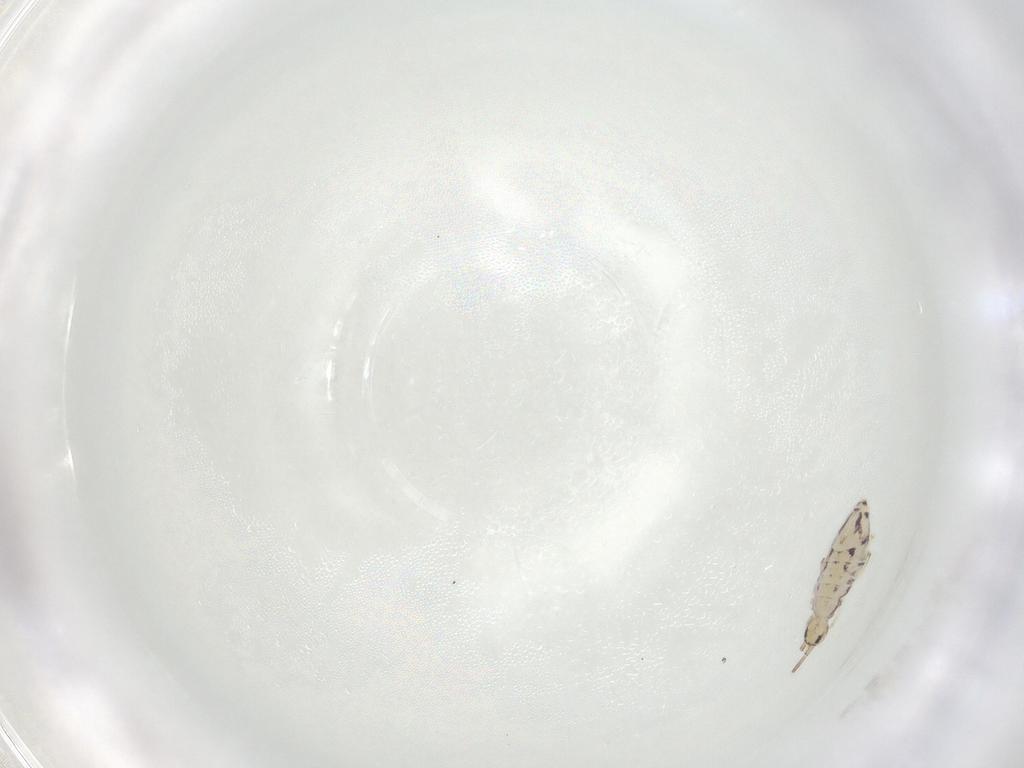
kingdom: Animalia
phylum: Arthropoda
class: Collembola
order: Entomobryomorpha
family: Entomobryidae
